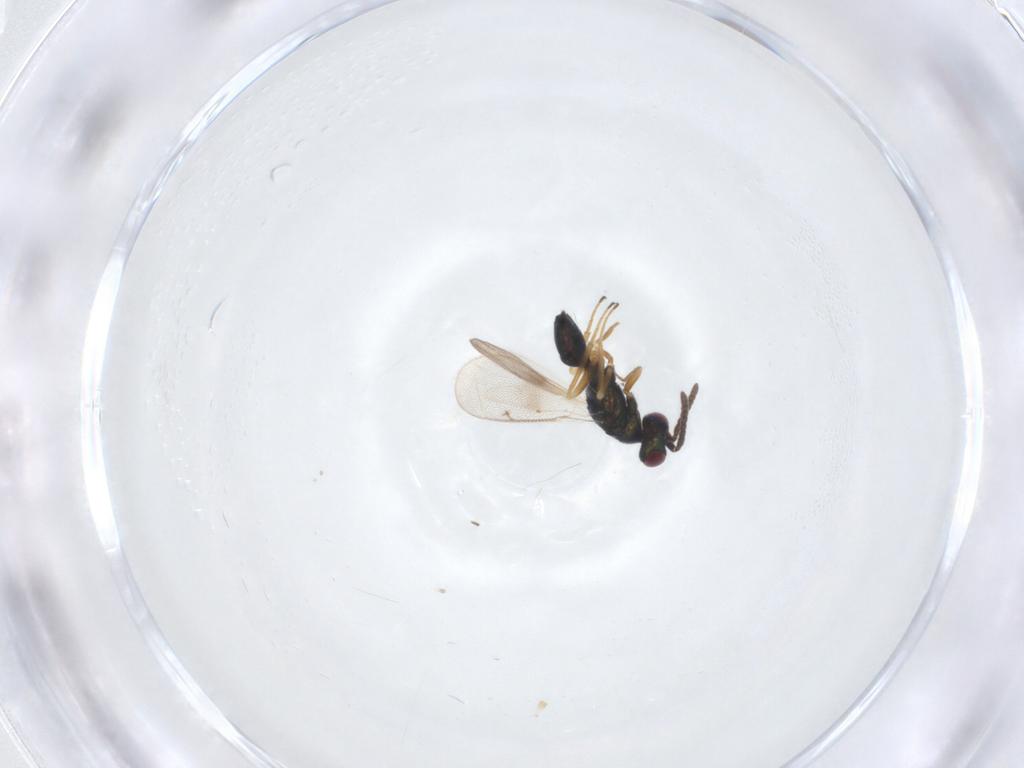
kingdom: Animalia
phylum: Arthropoda
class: Insecta
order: Hymenoptera
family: Tetracampidae
